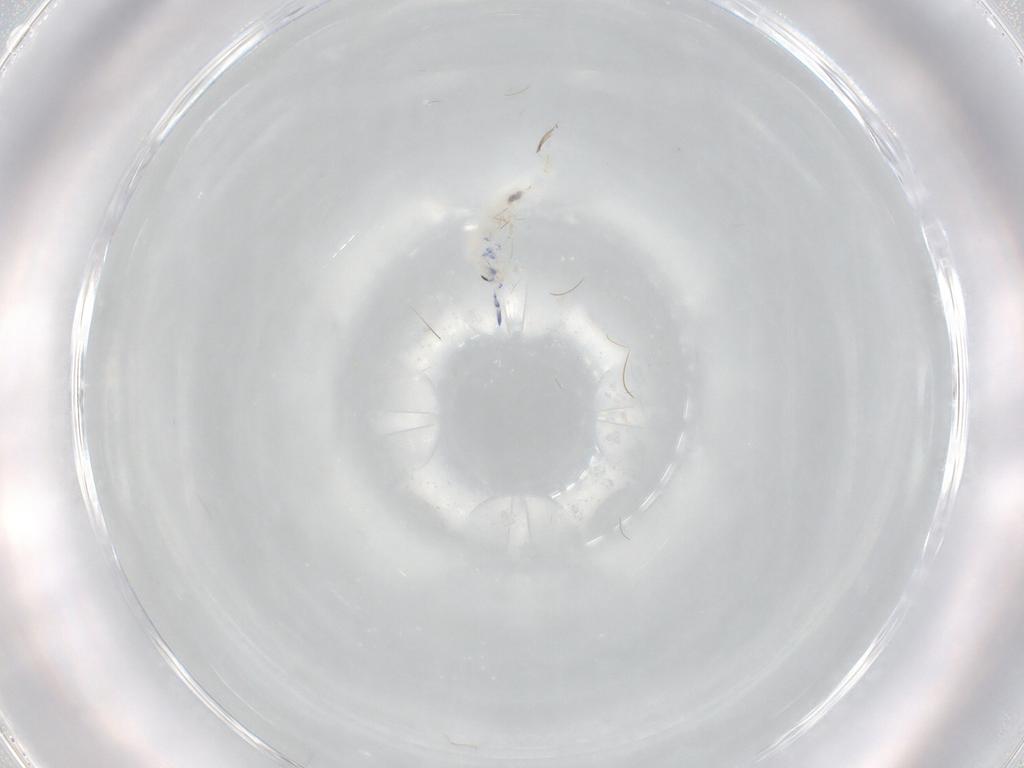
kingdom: Animalia
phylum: Arthropoda
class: Collembola
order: Entomobryomorpha
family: Entomobryidae
